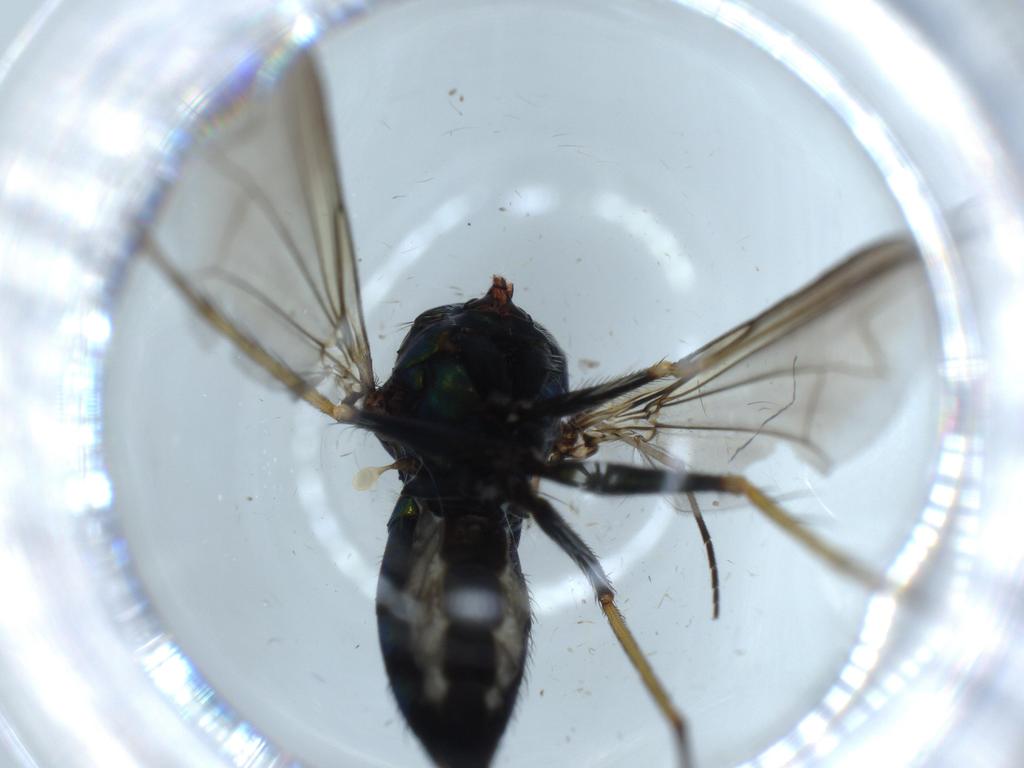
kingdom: Animalia
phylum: Arthropoda
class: Insecta
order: Diptera
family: Dolichopodidae
